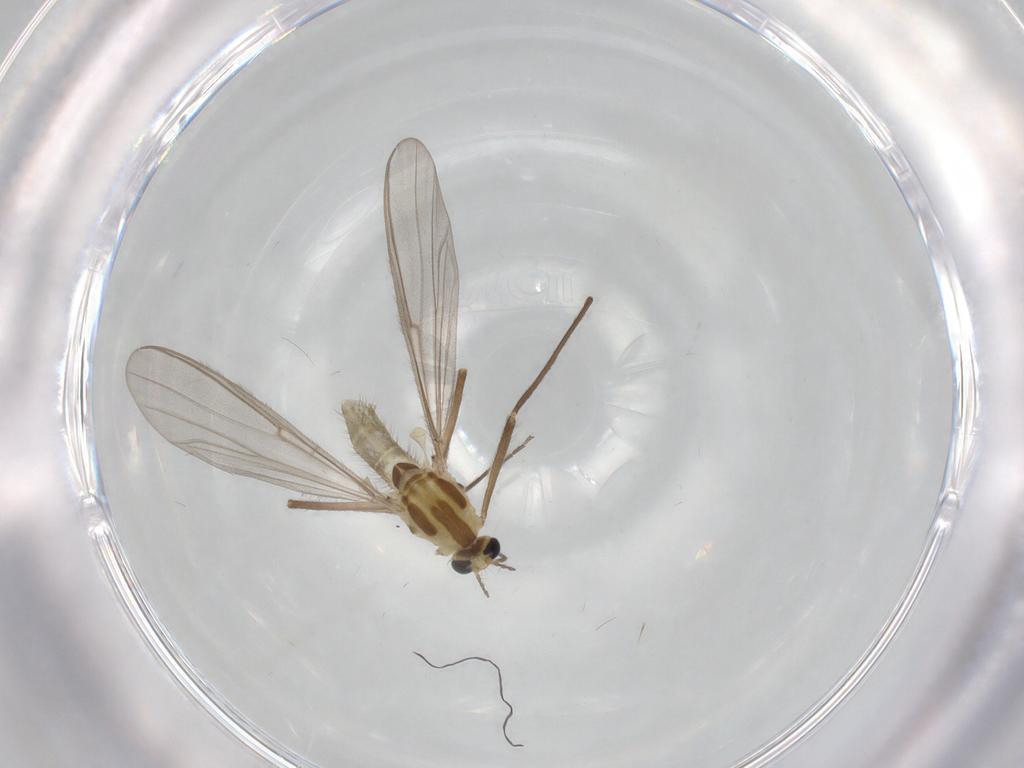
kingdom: Animalia
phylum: Arthropoda
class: Insecta
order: Diptera
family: Chironomidae
